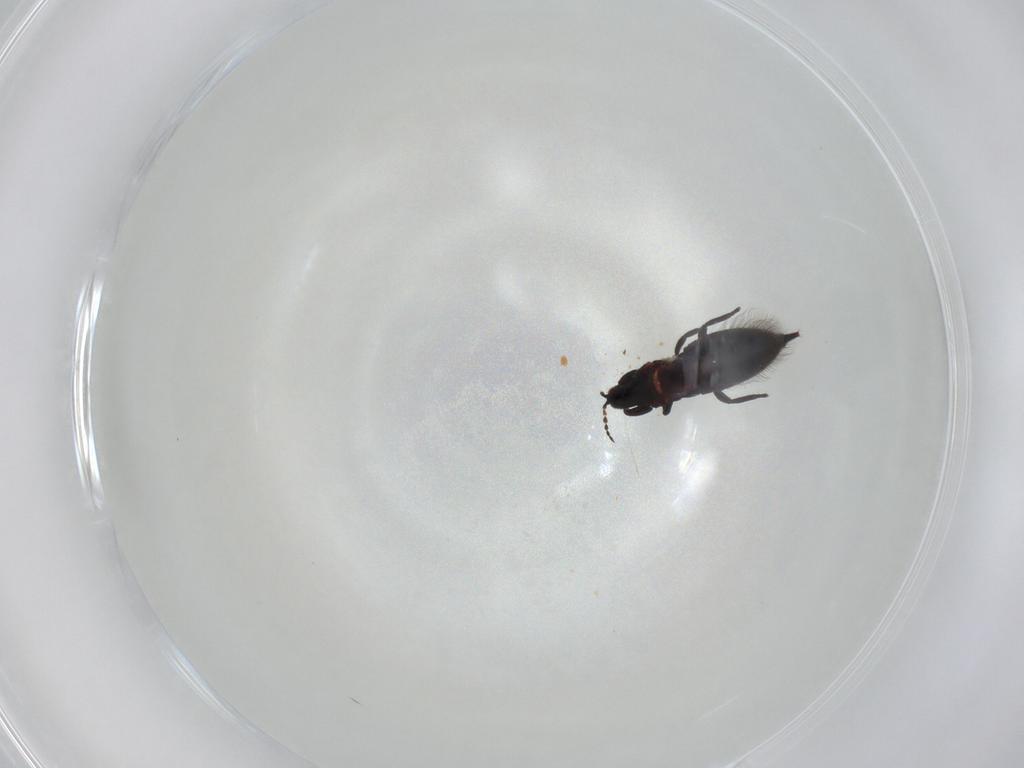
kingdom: Animalia
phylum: Arthropoda
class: Insecta
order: Thysanoptera
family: Phlaeothripidae
